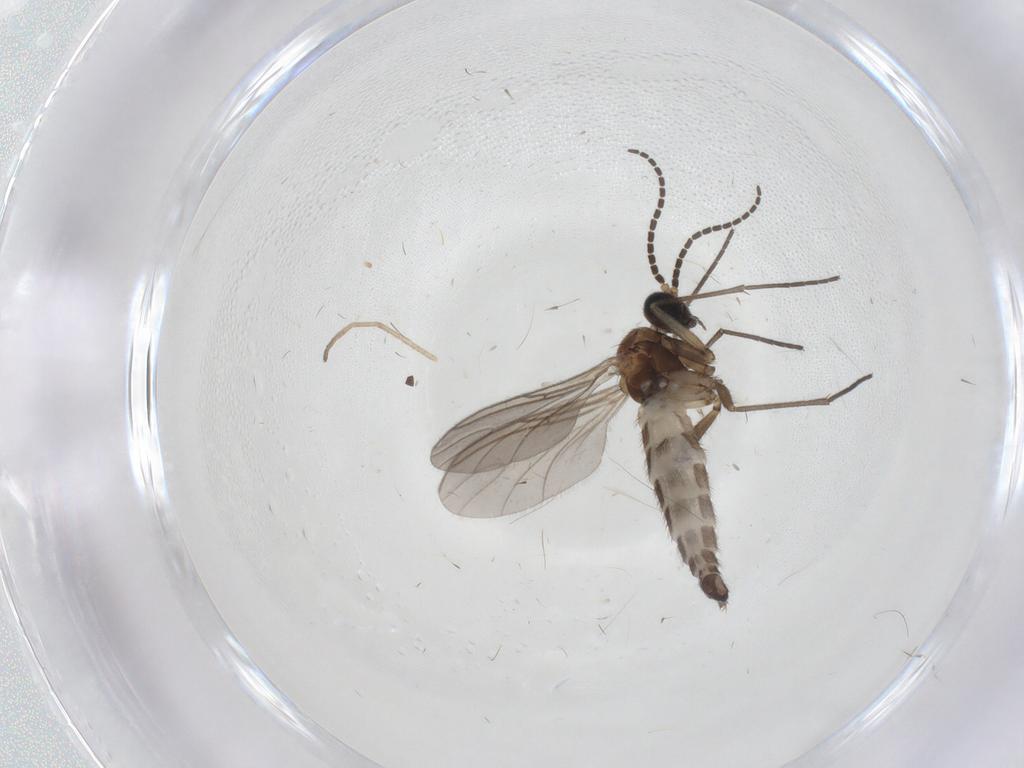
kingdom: Animalia
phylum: Arthropoda
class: Insecta
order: Diptera
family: Sciaridae
